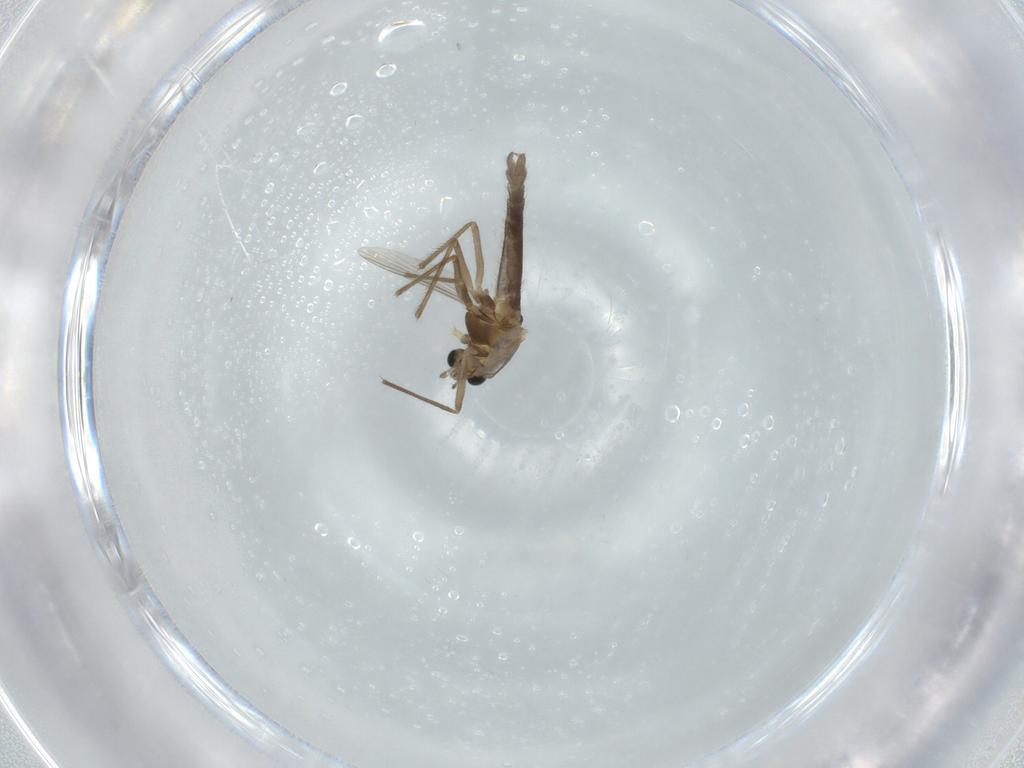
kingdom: Animalia
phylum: Arthropoda
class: Insecta
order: Diptera
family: Chironomidae
